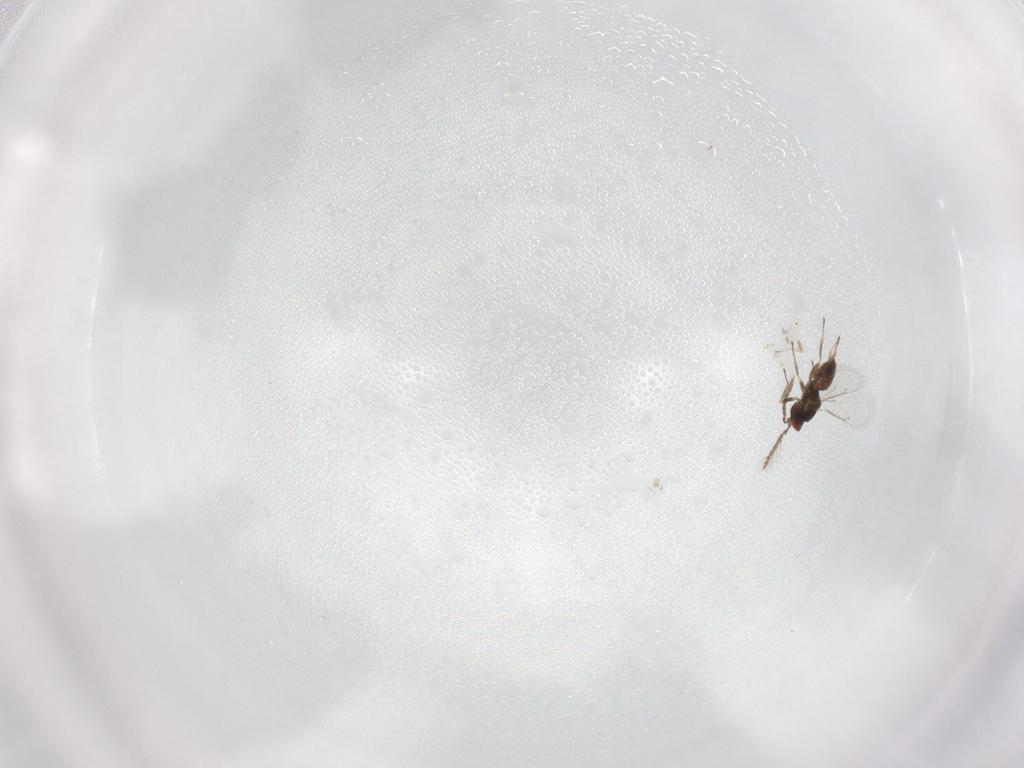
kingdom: Animalia
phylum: Arthropoda
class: Insecta
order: Hymenoptera
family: Eulophidae
